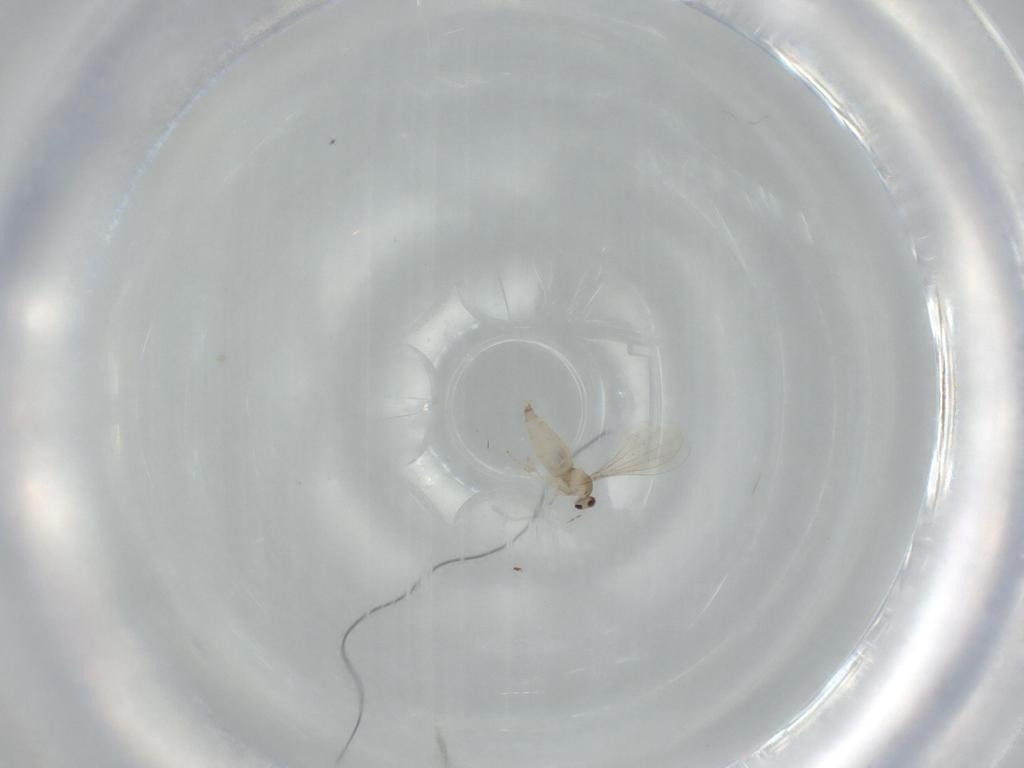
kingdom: Animalia
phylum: Arthropoda
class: Insecta
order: Diptera
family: Cecidomyiidae
